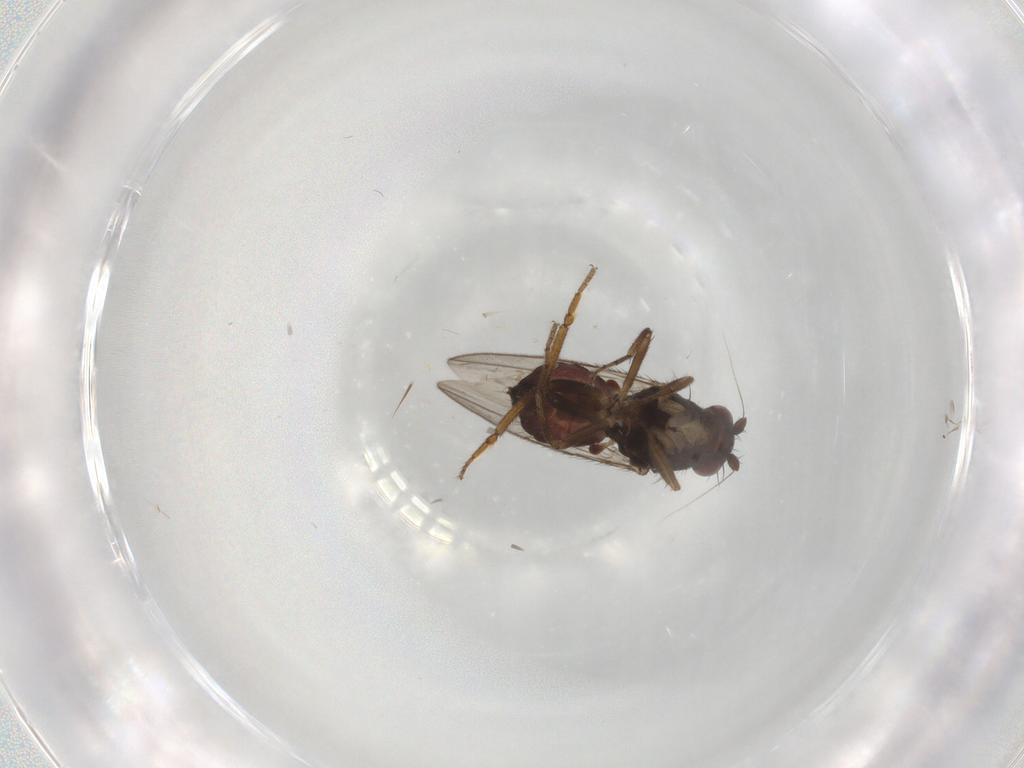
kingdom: Animalia
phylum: Arthropoda
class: Insecta
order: Diptera
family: Sphaeroceridae
